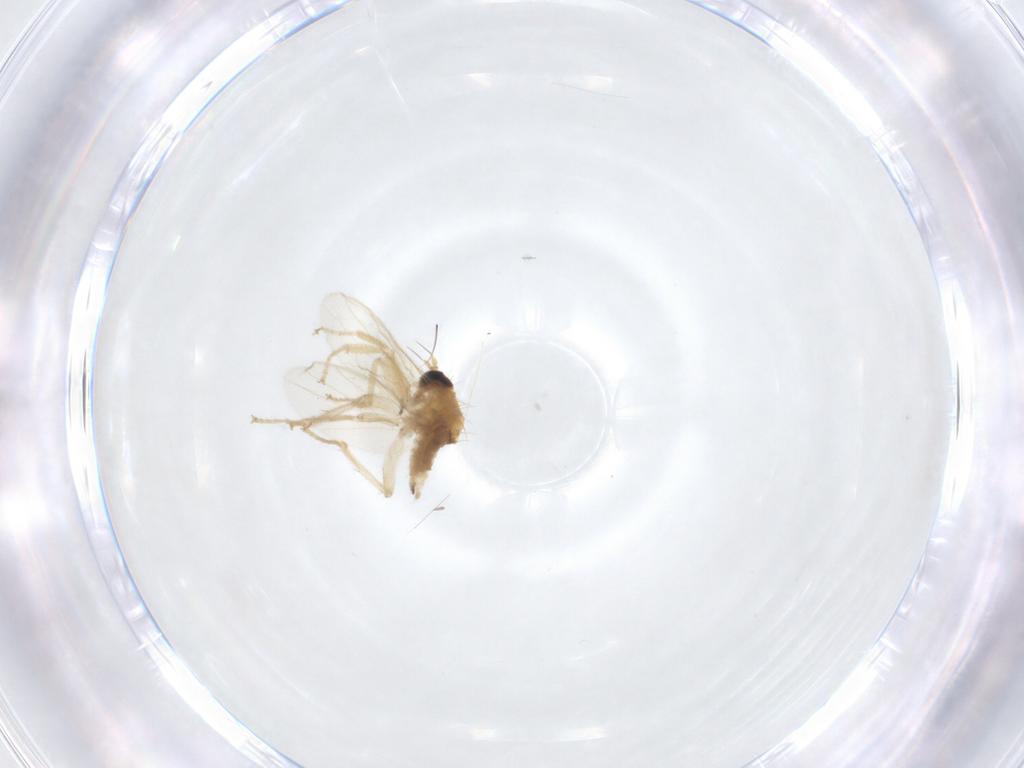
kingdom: Animalia
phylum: Arthropoda
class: Insecta
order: Diptera
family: Chironomidae
